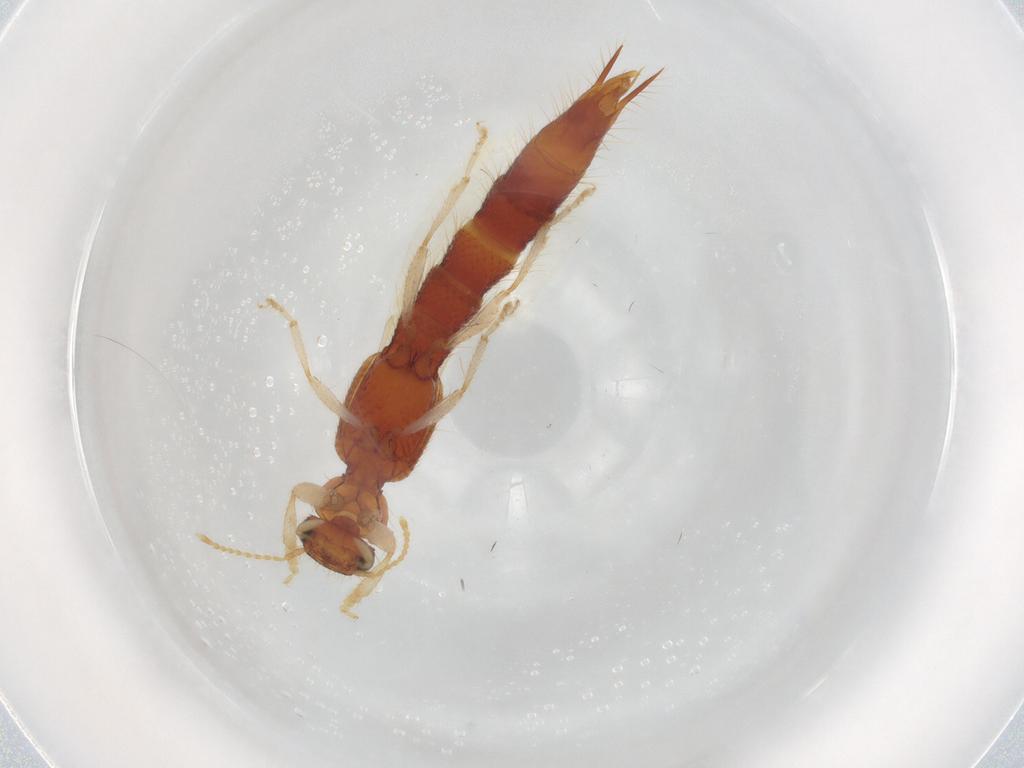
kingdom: Animalia
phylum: Arthropoda
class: Insecta
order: Coleoptera
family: Staphylinidae
